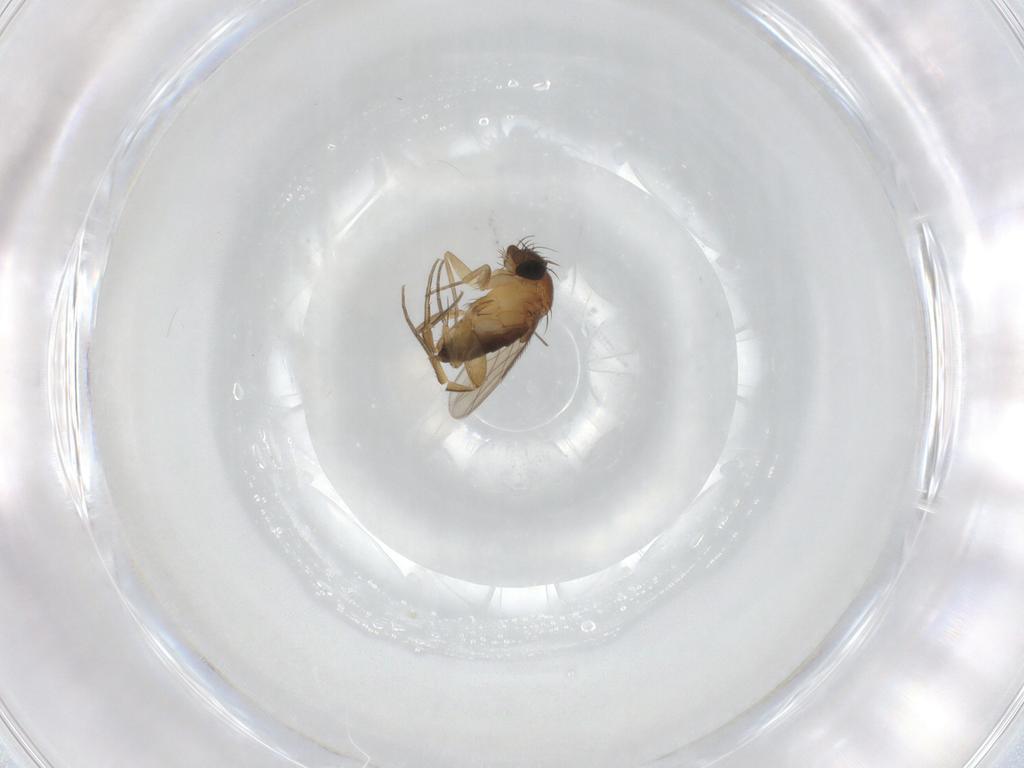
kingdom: Animalia
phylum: Arthropoda
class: Insecta
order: Diptera
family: Phoridae
